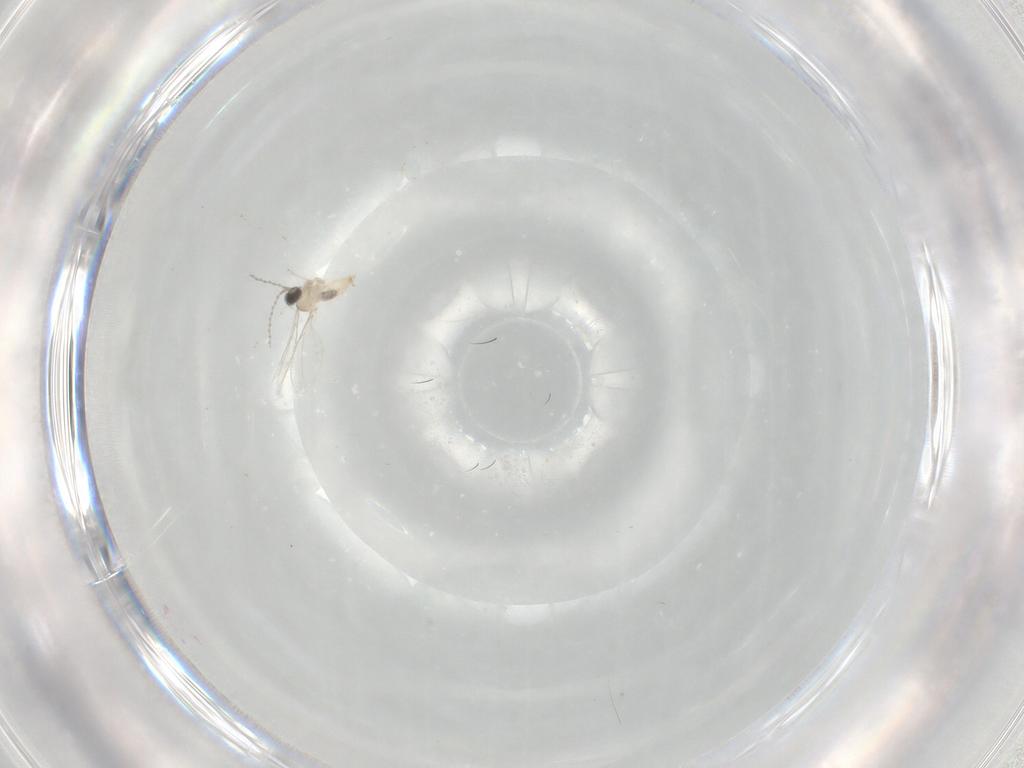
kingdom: Animalia
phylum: Arthropoda
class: Insecta
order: Diptera
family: Cecidomyiidae
